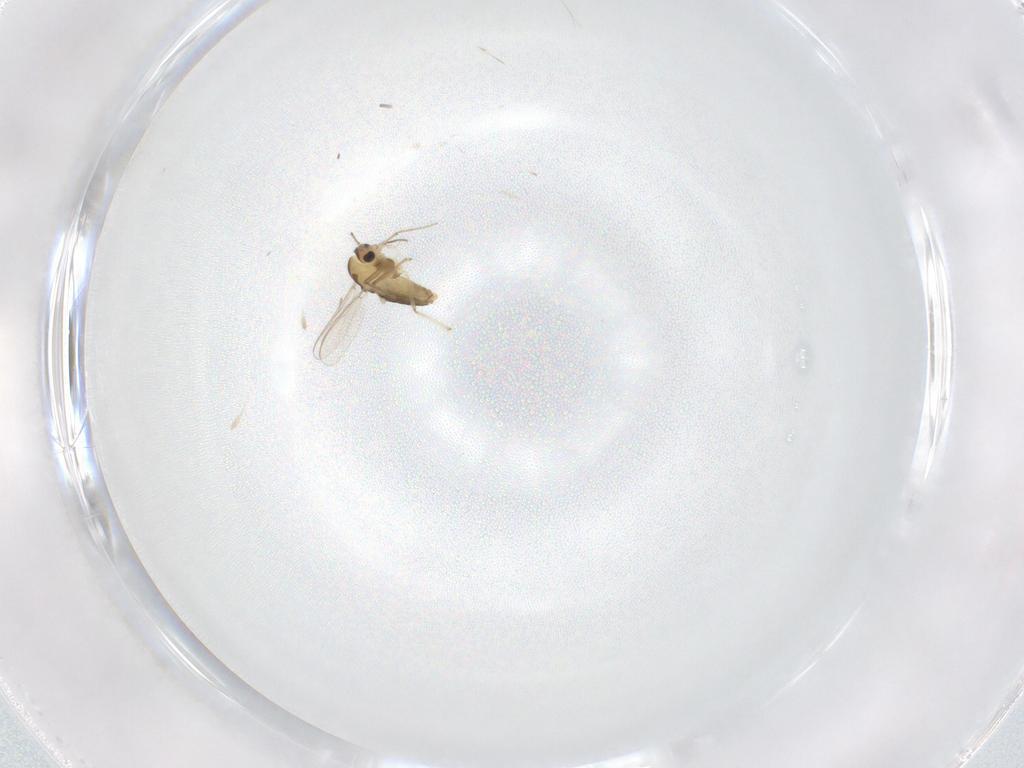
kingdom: Animalia
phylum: Arthropoda
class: Insecta
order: Diptera
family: Chironomidae
